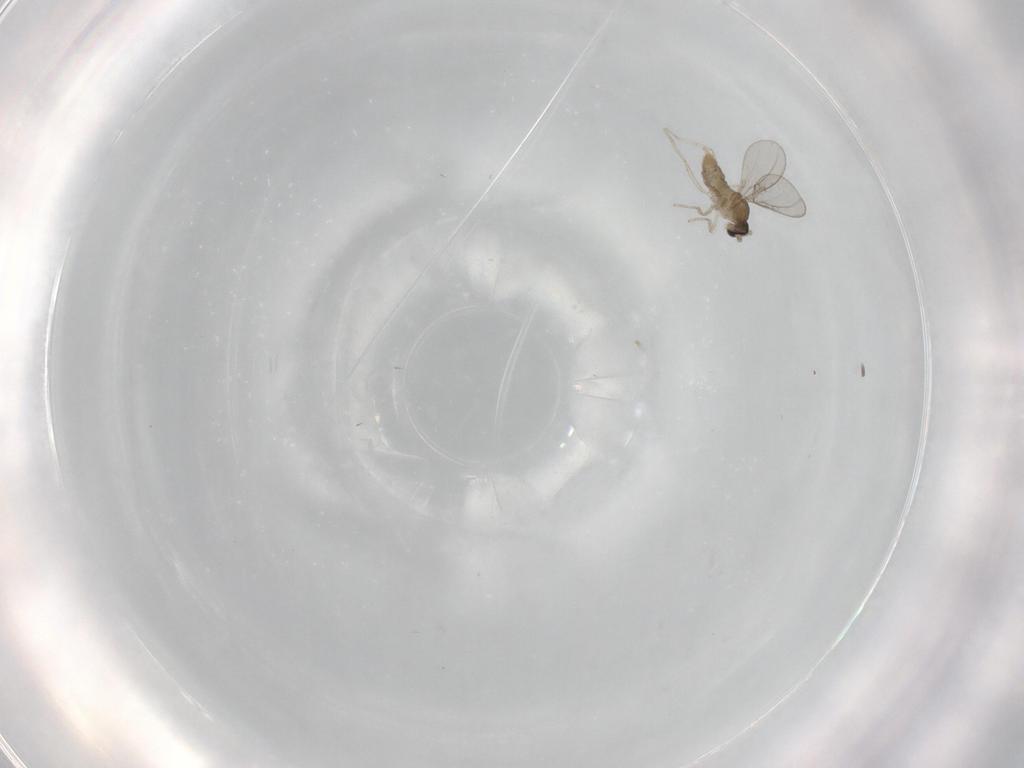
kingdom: Animalia
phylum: Arthropoda
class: Insecta
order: Diptera
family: Cecidomyiidae
